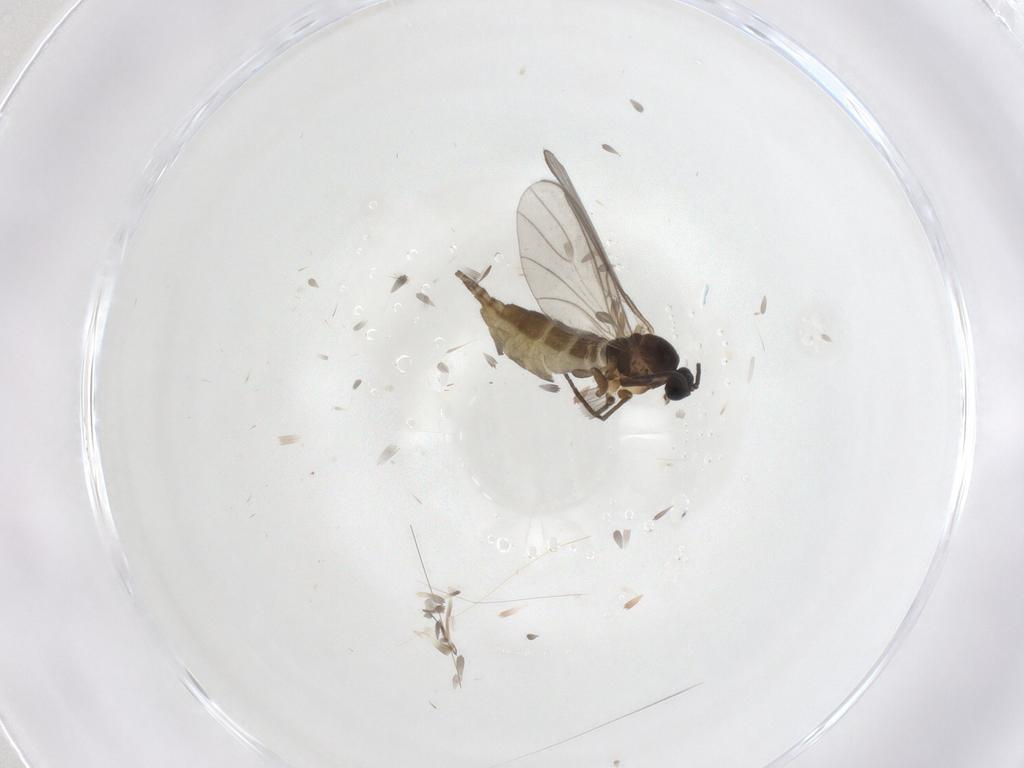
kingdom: Animalia
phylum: Arthropoda
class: Insecta
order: Diptera
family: Sciaridae
